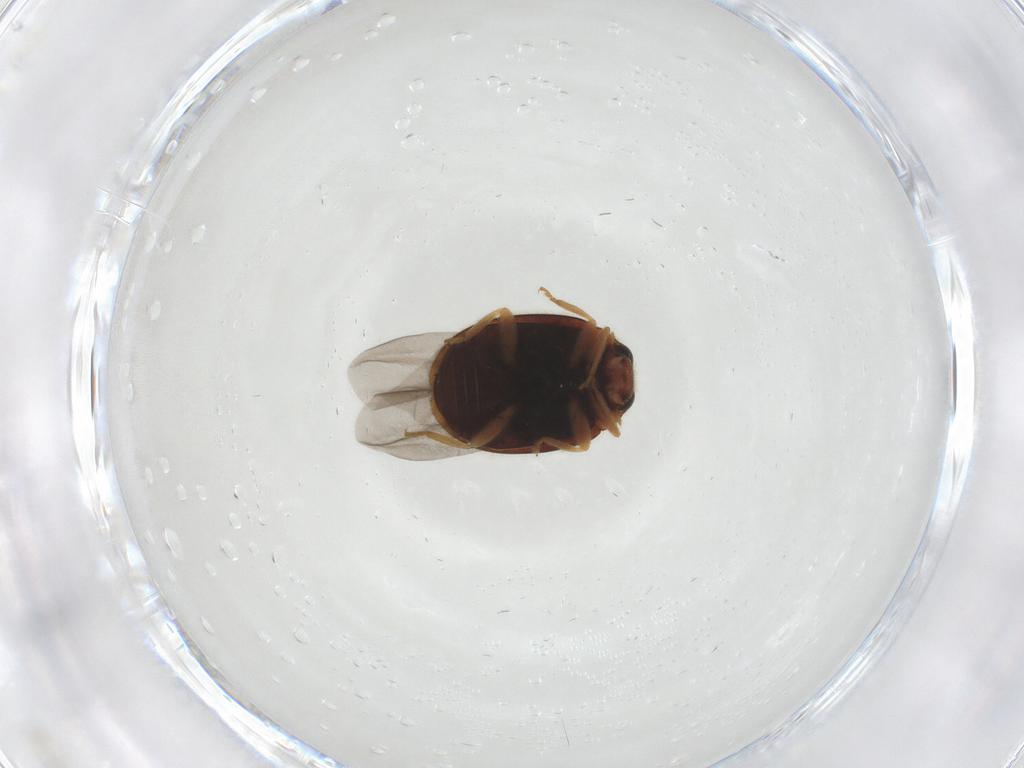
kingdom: Animalia
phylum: Arthropoda
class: Insecta
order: Coleoptera
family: Coccinellidae
